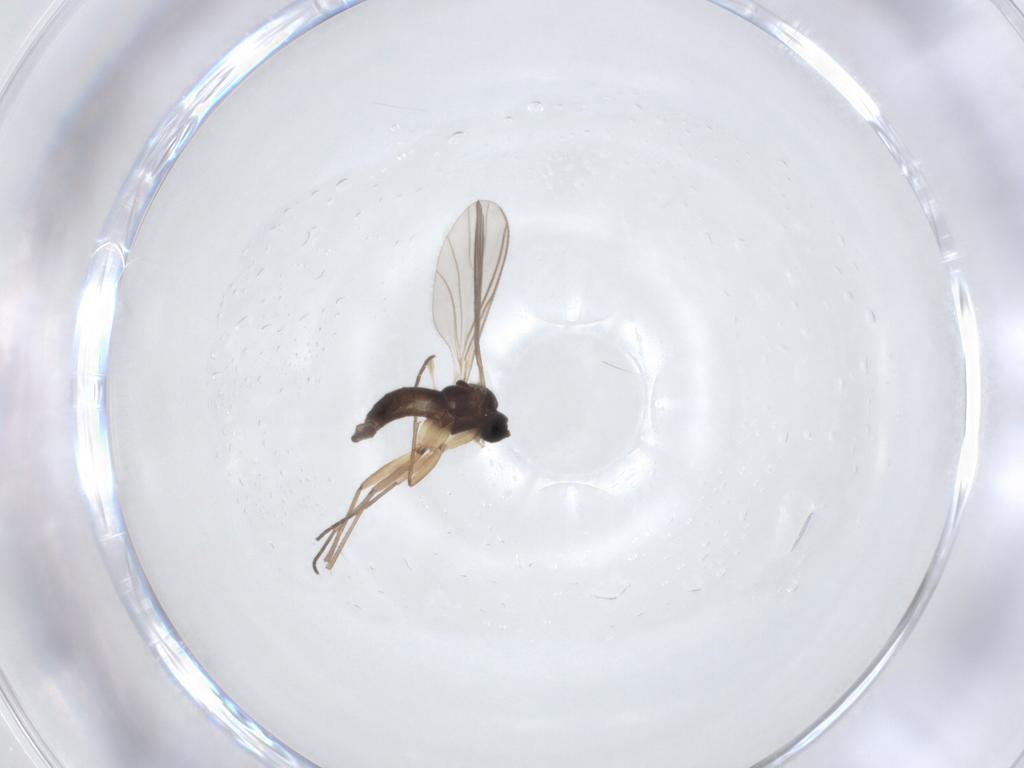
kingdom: Animalia
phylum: Arthropoda
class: Insecta
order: Diptera
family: Sciaridae
